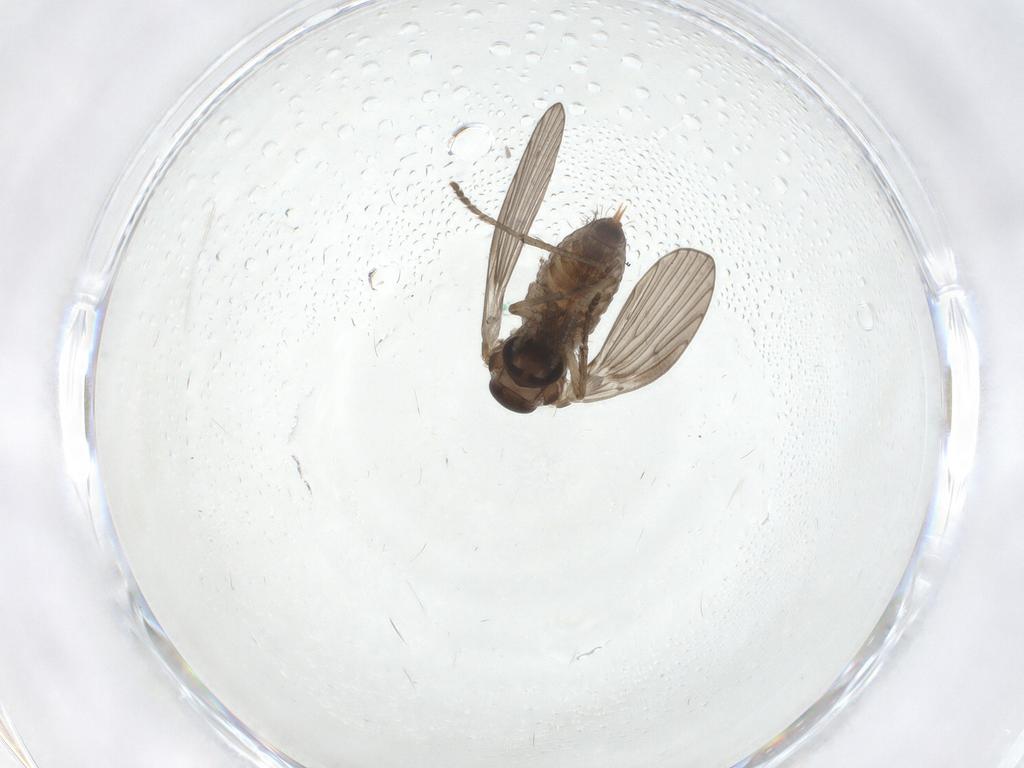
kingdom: Animalia
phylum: Arthropoda
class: Insecta
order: Diptera
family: Psychodidae
